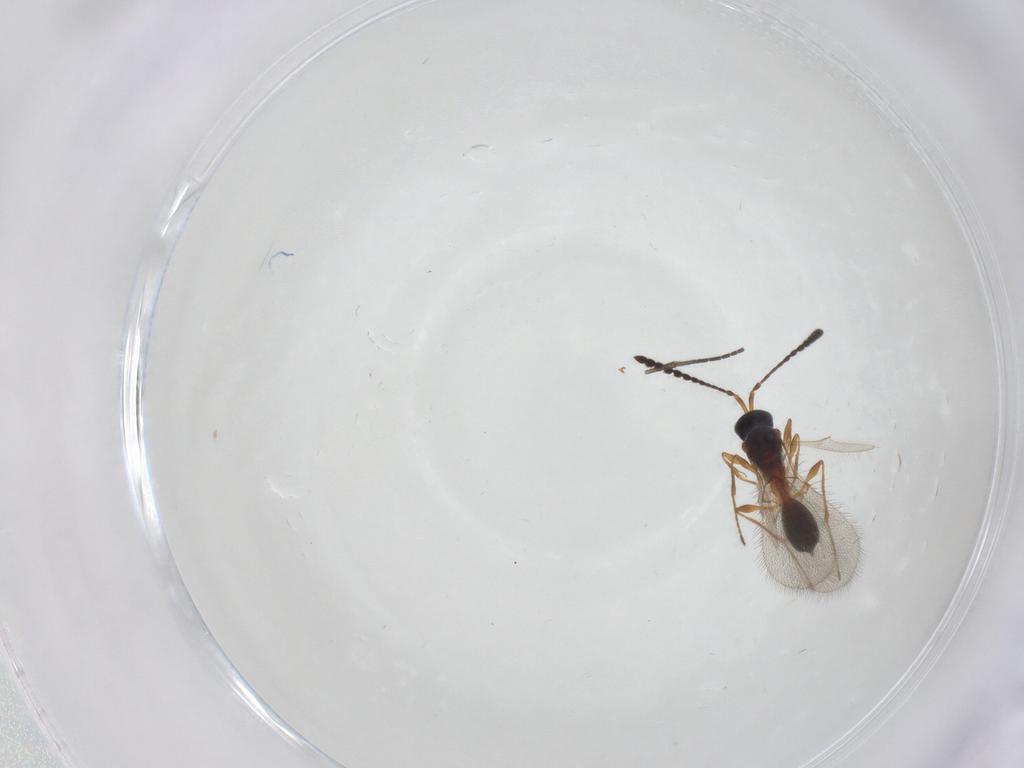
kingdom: Animalia
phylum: Arthropoda
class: Insecta
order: Hymenoptera
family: Diapriidae
